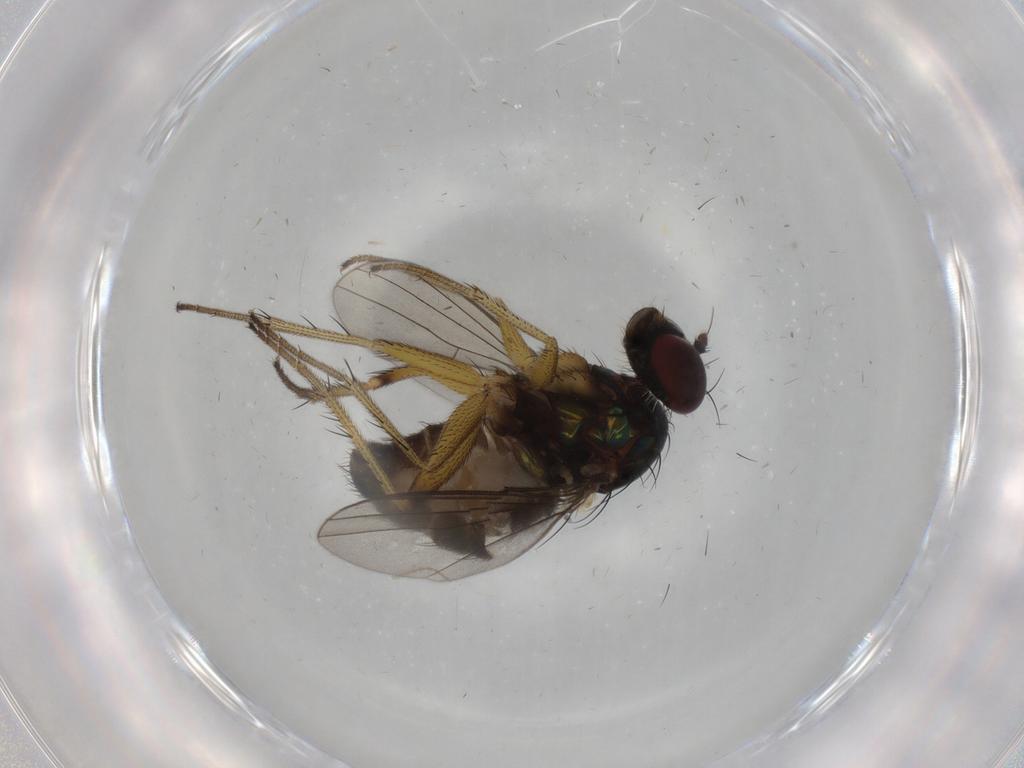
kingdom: Animalia
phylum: Arthropoda
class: Insecta
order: Diptera
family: Dolichopodidae
